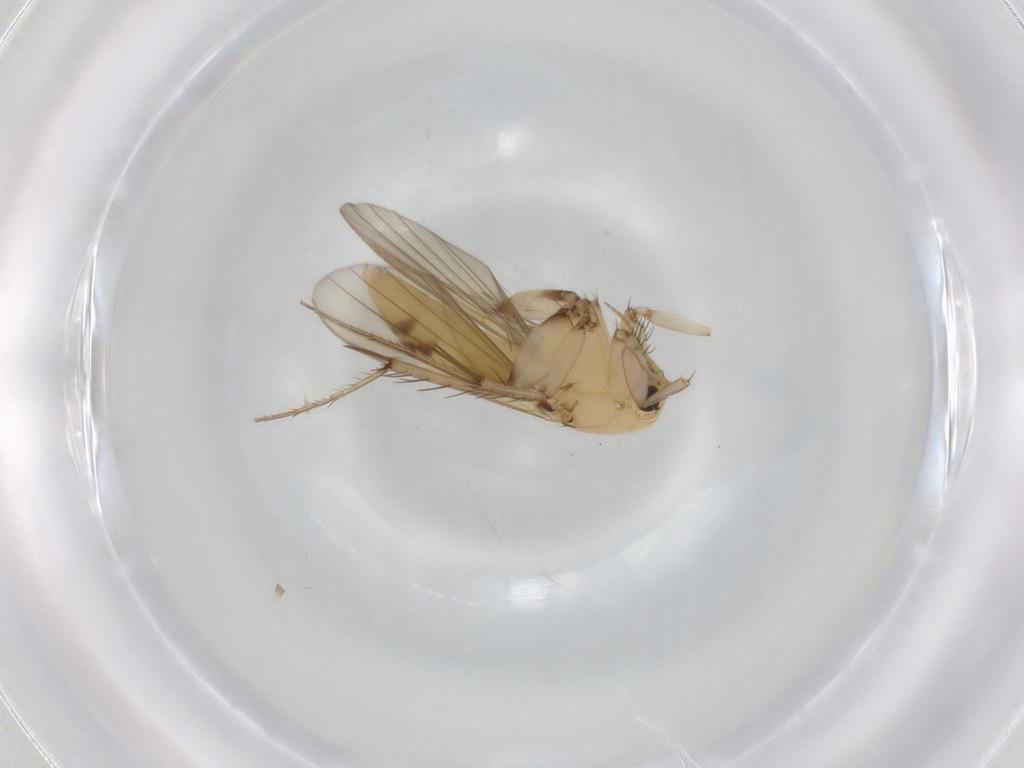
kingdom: Animalia
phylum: Arthropoda
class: Insecta
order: Diptera
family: Mycetophilidae
